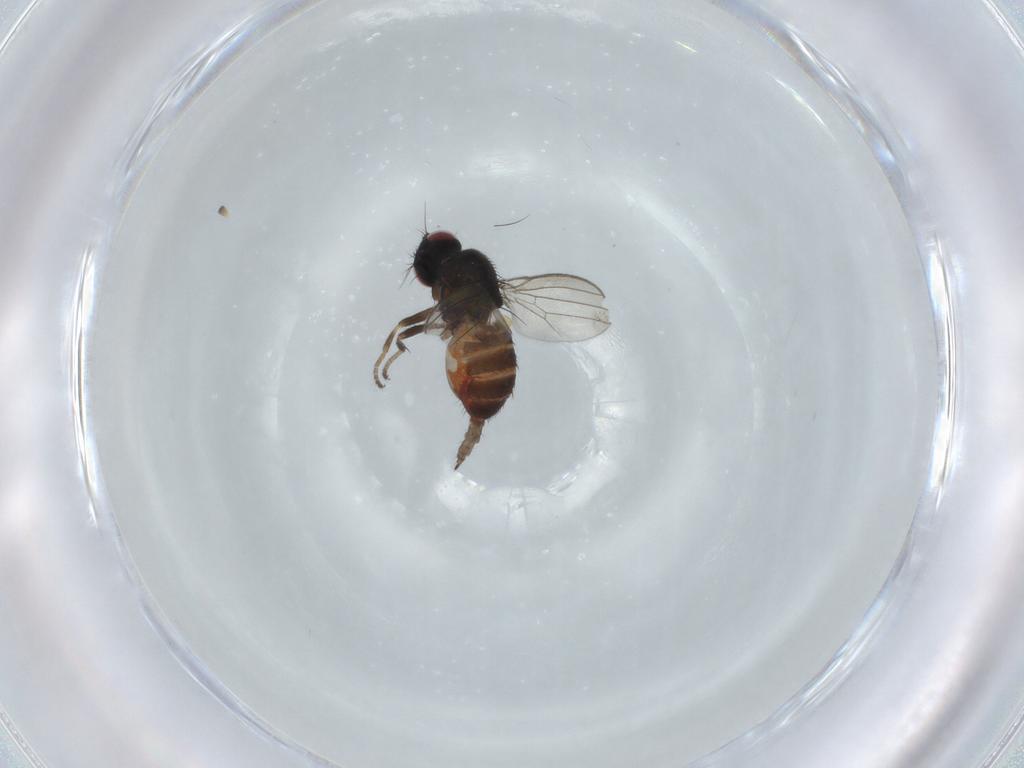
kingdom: Animalia
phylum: Arthropoda
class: Insecta
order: Diptera
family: Milichiidae
